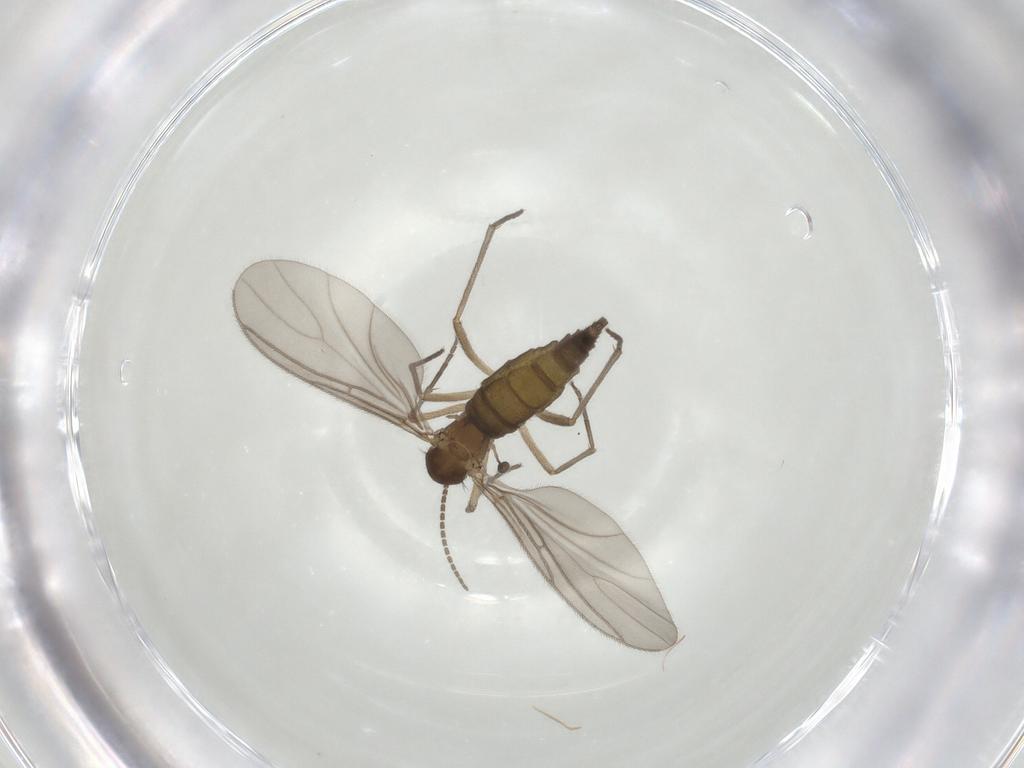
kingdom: Animalia
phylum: Arthropoda
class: Insecta
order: Diptera
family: Sciaridae
